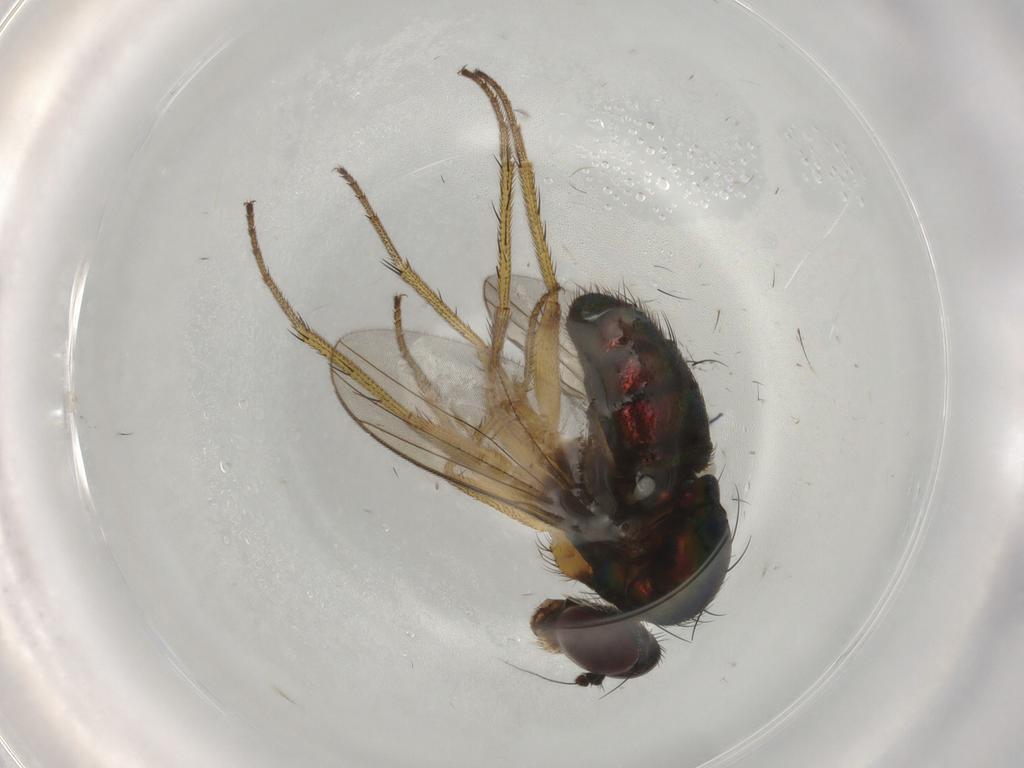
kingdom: Animalia
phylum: Arthropoda
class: Insecta
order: Diptera
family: Dolichopodidae
